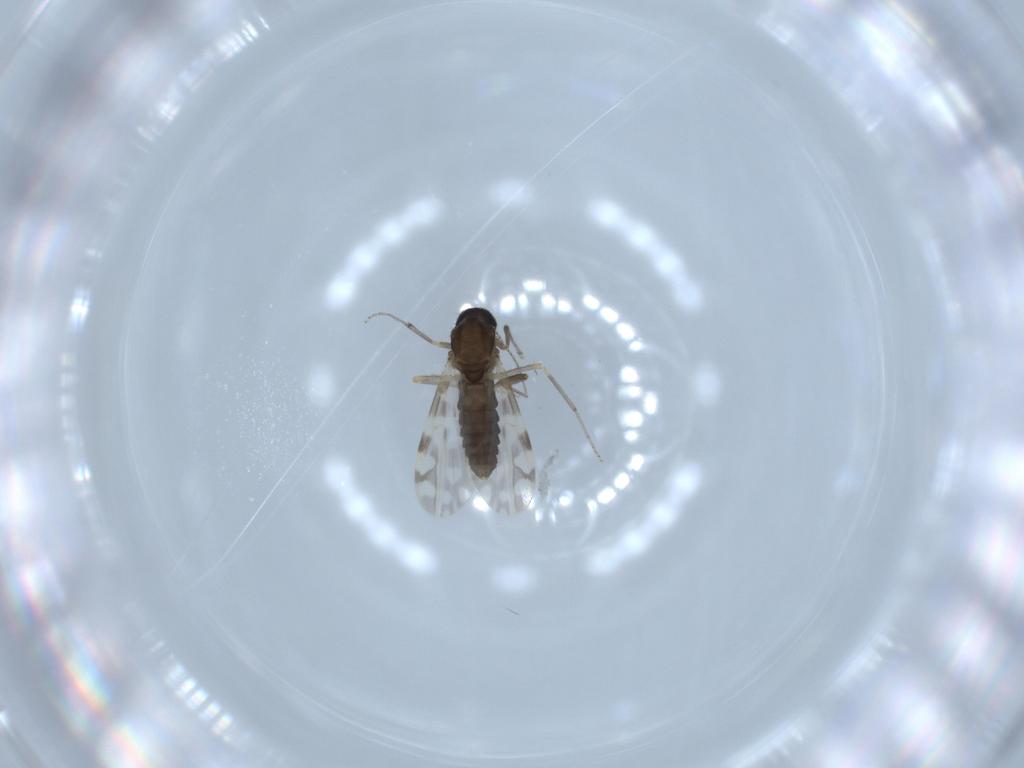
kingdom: Animalia
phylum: Arthropoda
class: Insecta
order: Diptera
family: Ceratopogonidae
